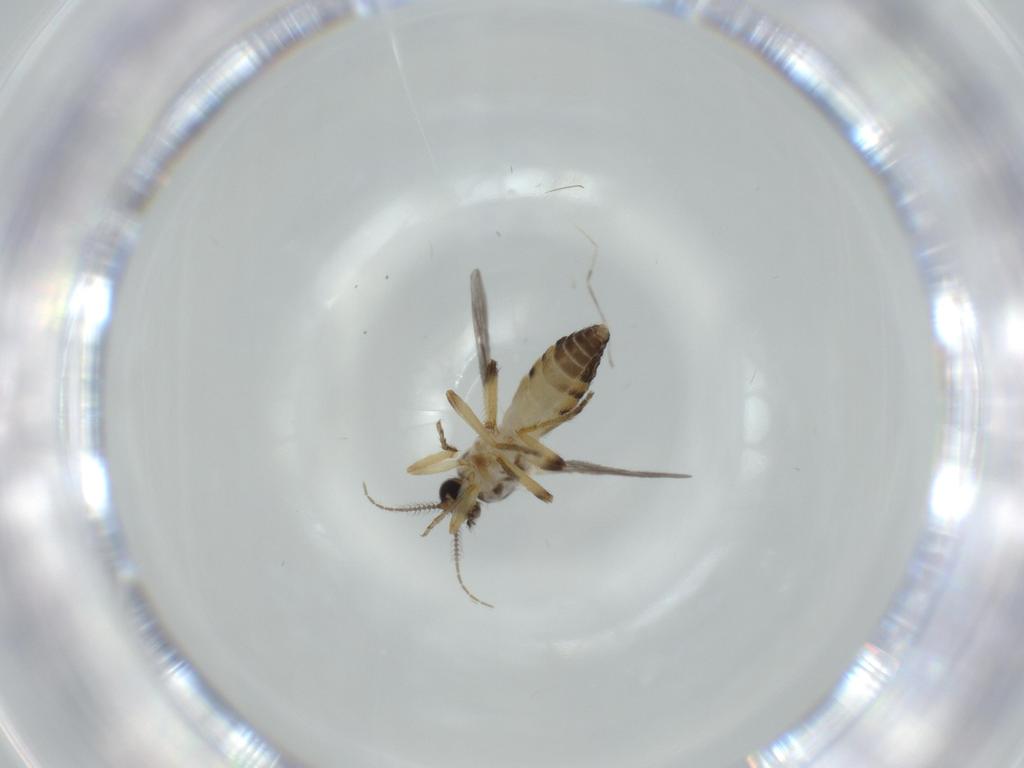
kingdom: Animalia
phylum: Arthropoda
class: Insecta
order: Diptera
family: Ceratopogonidae
